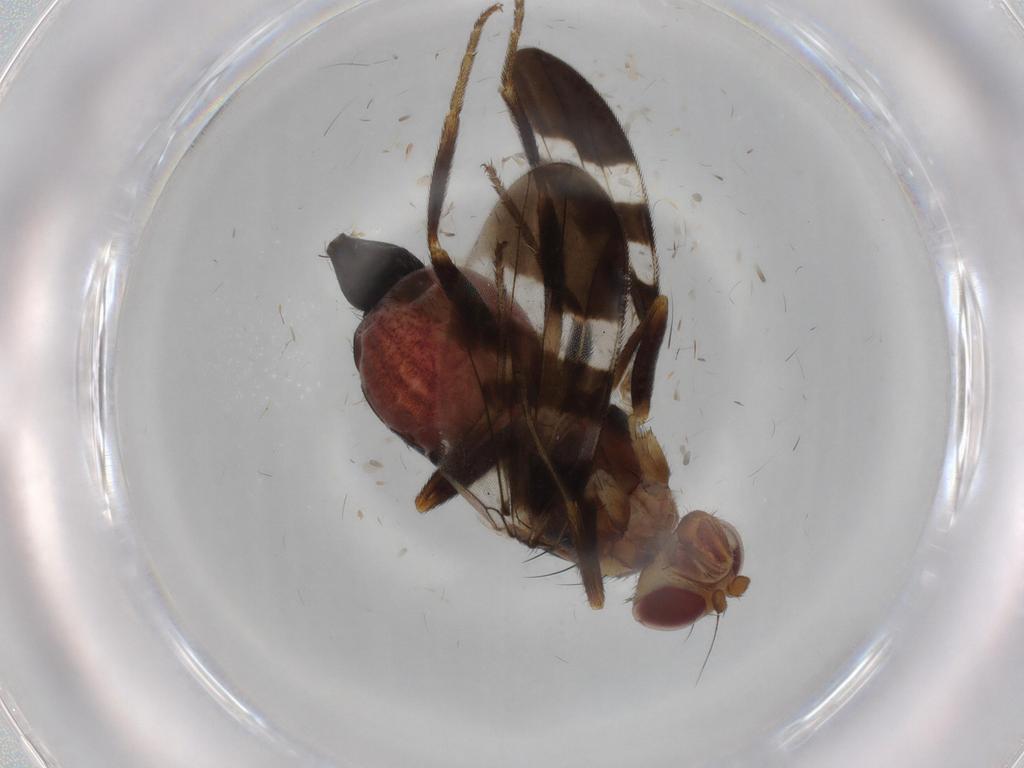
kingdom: Animalia
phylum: Arthropoda
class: Insecta
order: Diptera
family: Tephritidae
